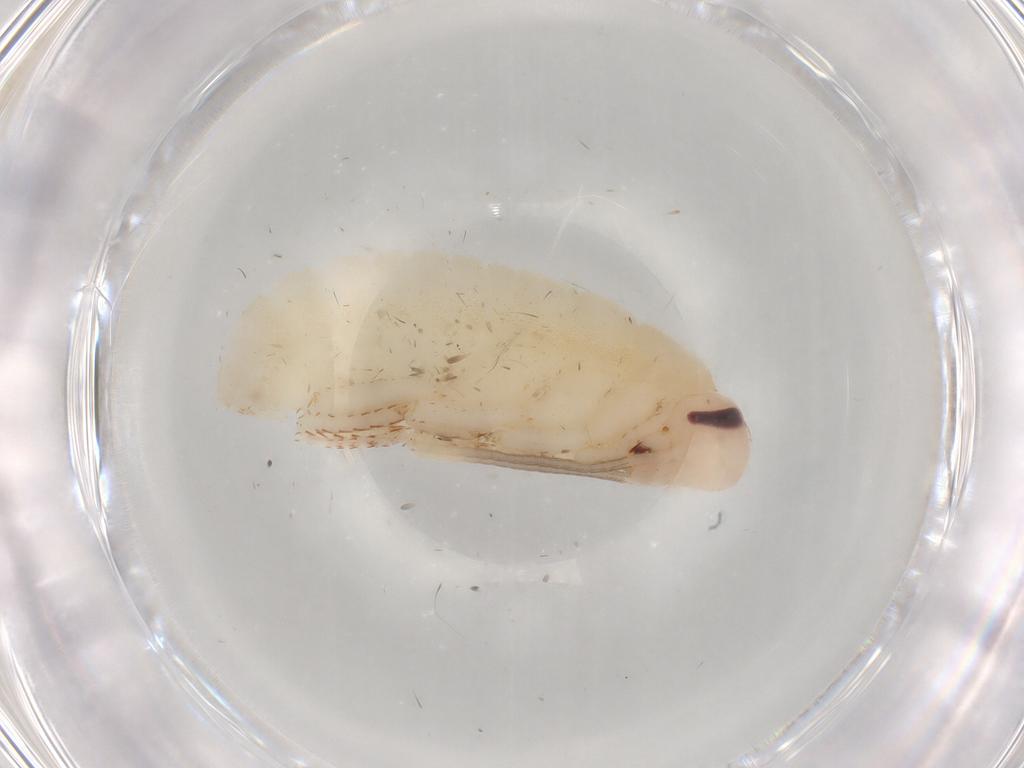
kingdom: Animalia
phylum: Arthropoda
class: Insecta
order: Blattodea
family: Blaberidae
